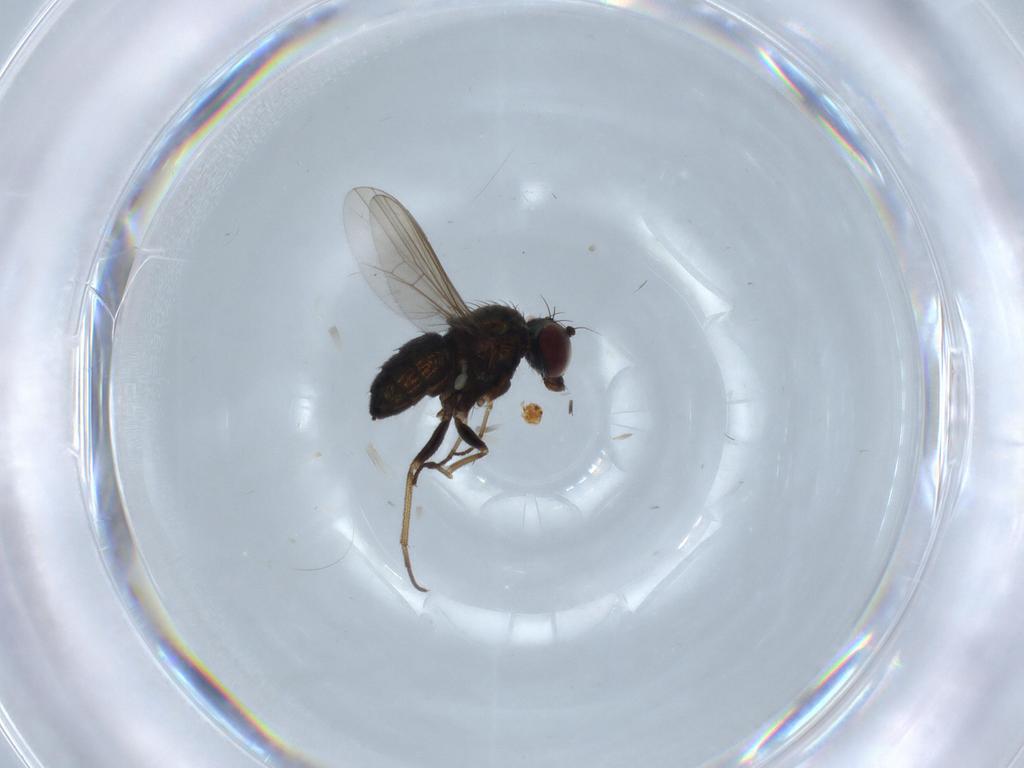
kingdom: Animalia
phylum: Arthropoda
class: Insecta
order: Diptera
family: Dolichopodidae
